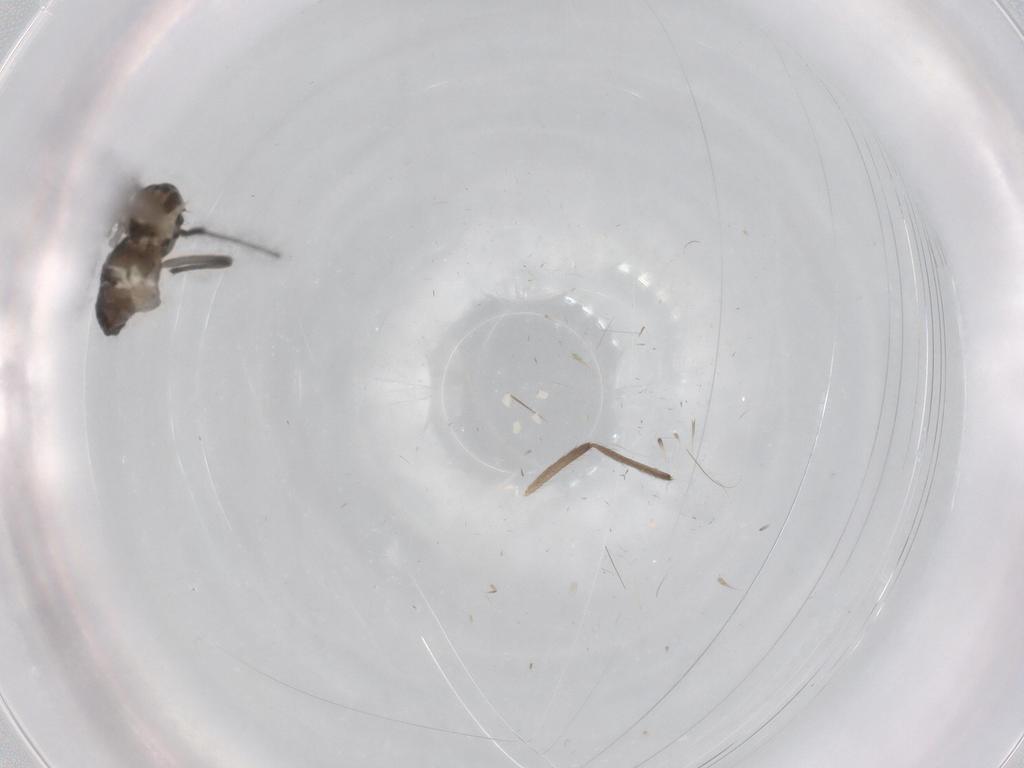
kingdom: Animalia
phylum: Arthropoda
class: Insecta
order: Diptera
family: Chironomidae
